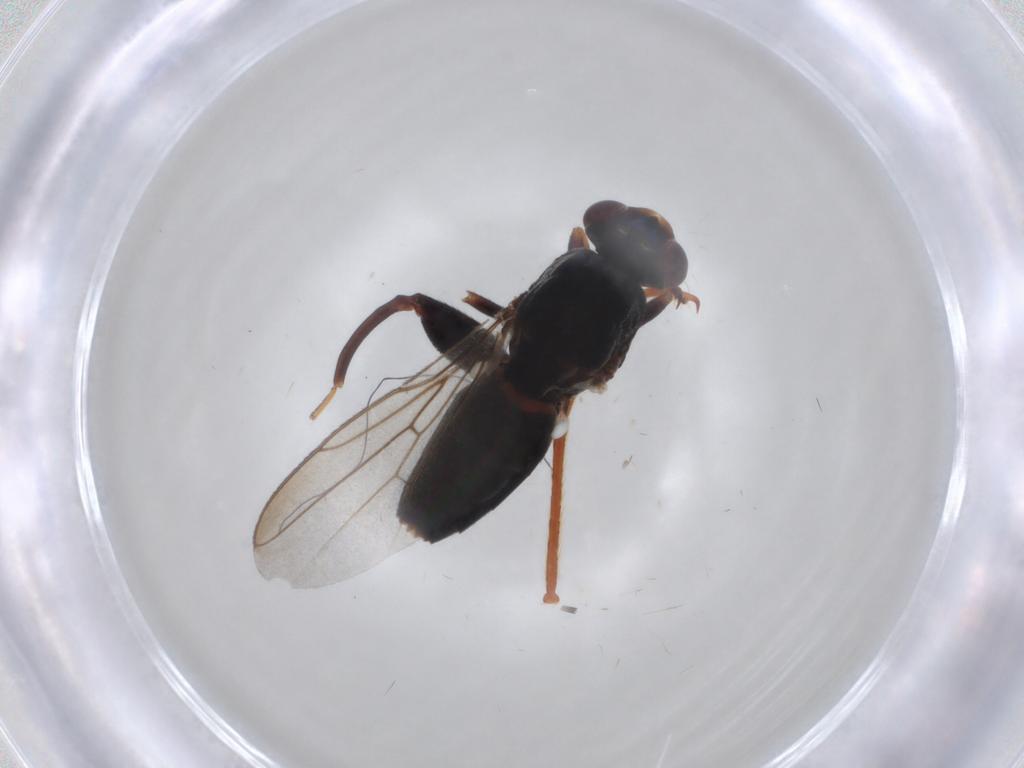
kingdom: Animalia
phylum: Arthropoda
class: Insecta
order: Diptera
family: Chloropidae
